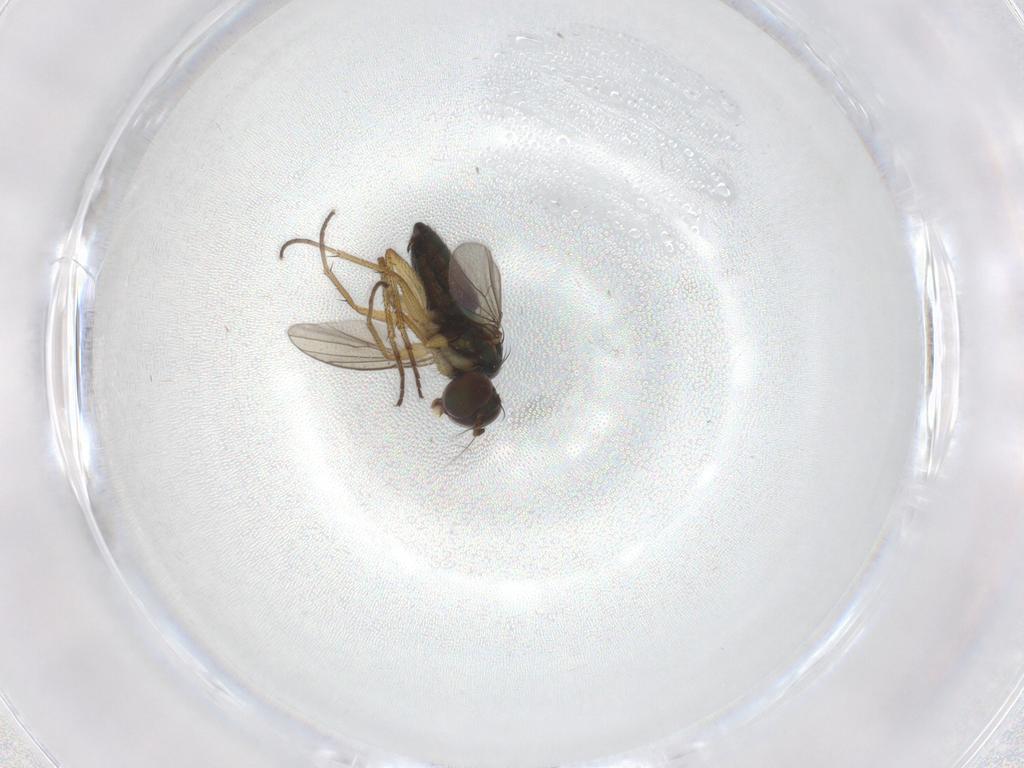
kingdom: Animalia
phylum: Arthropoda
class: Insecta
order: Diptera
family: Dolichopodidae
